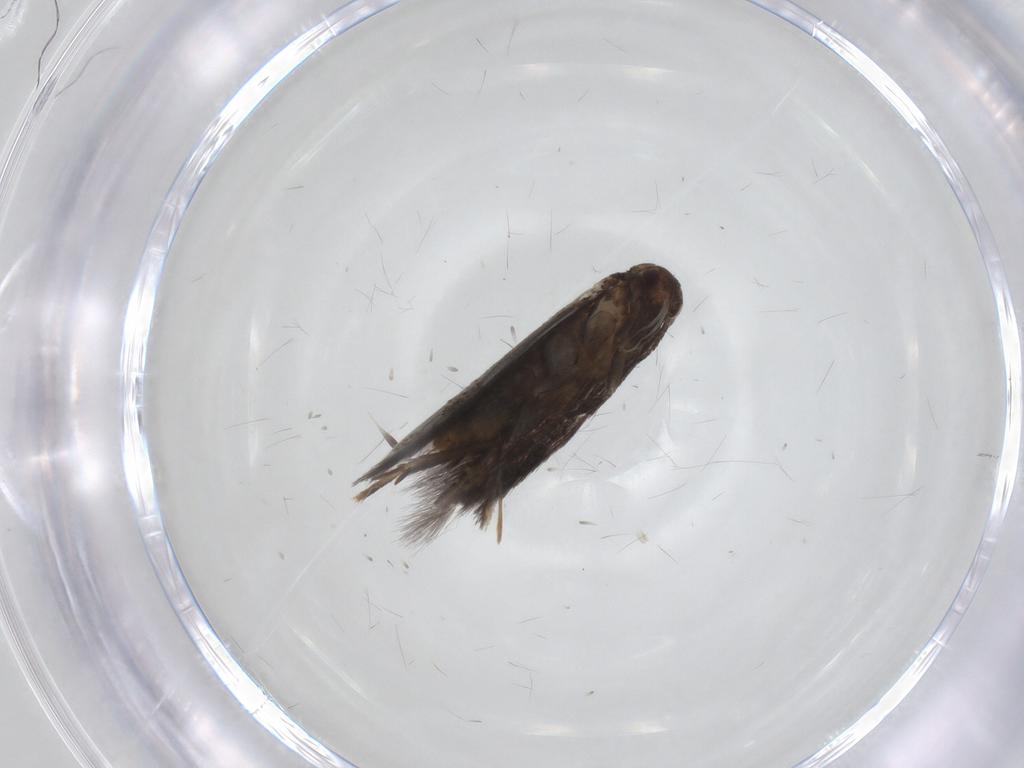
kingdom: Animalia
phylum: Arthropoda
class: Insecta
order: Lepidoptera
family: Elachistidae
